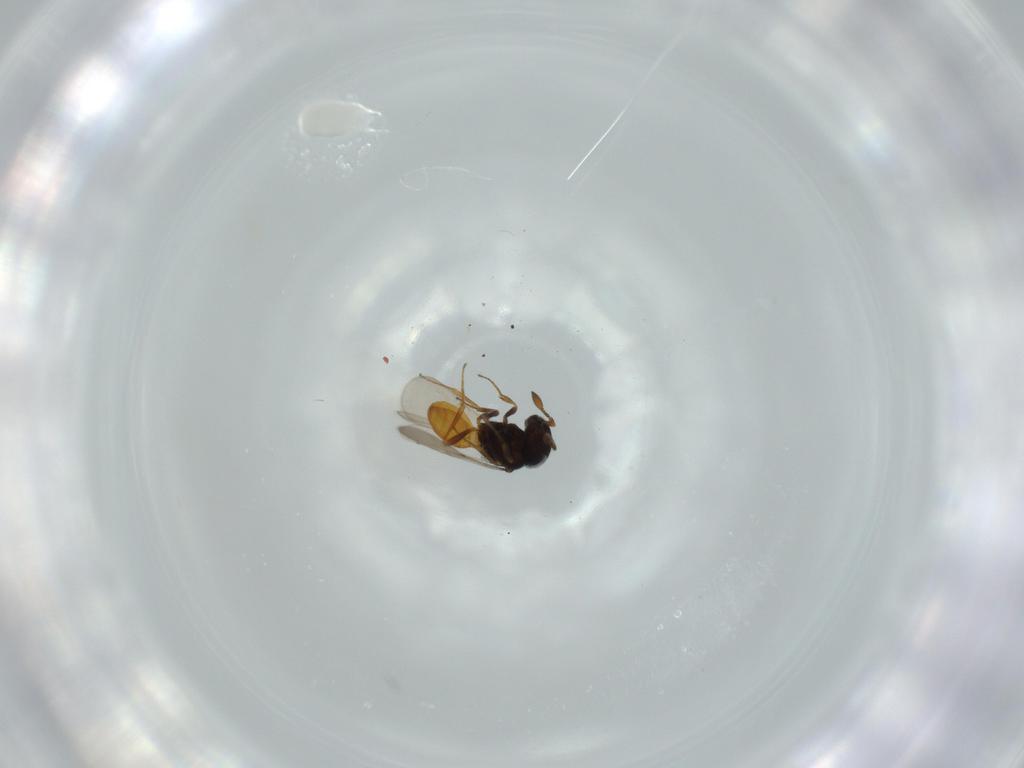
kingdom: Animalia
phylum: Arthropoda
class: Insecta
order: Hymenoptera
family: Scelionidae
